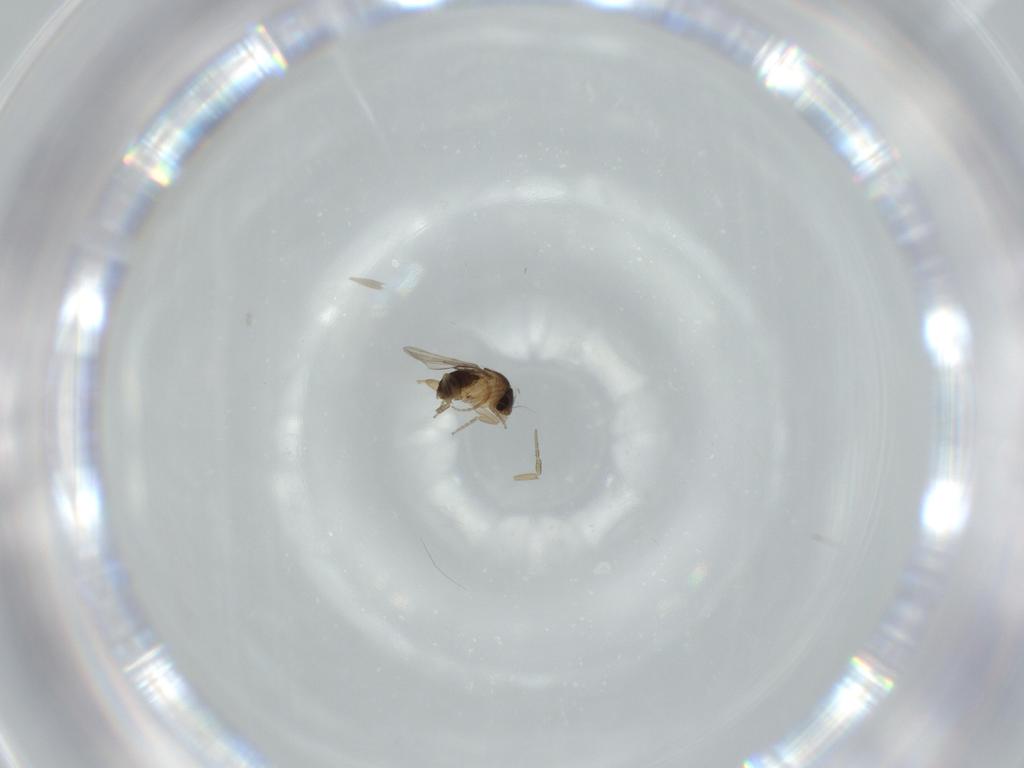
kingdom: Animalia
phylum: Arthropoda
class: Insecta
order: Diptera
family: Phoridae
